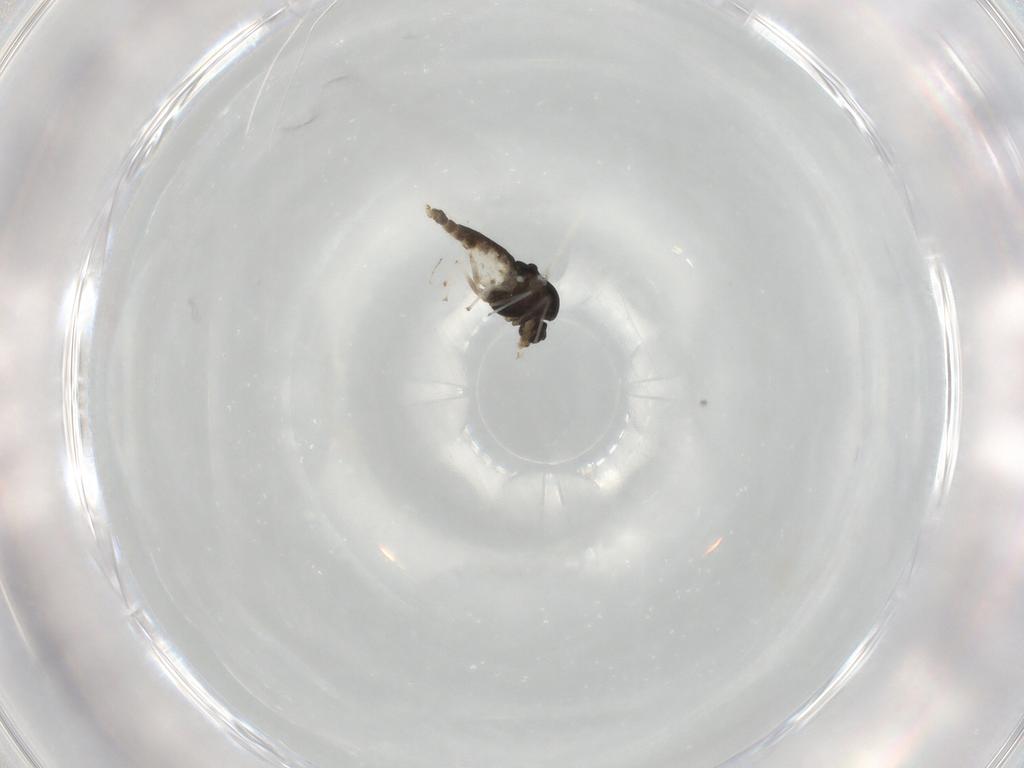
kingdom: Animalia
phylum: Arthropoda
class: Insecta
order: Diptera
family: Chironomidae
